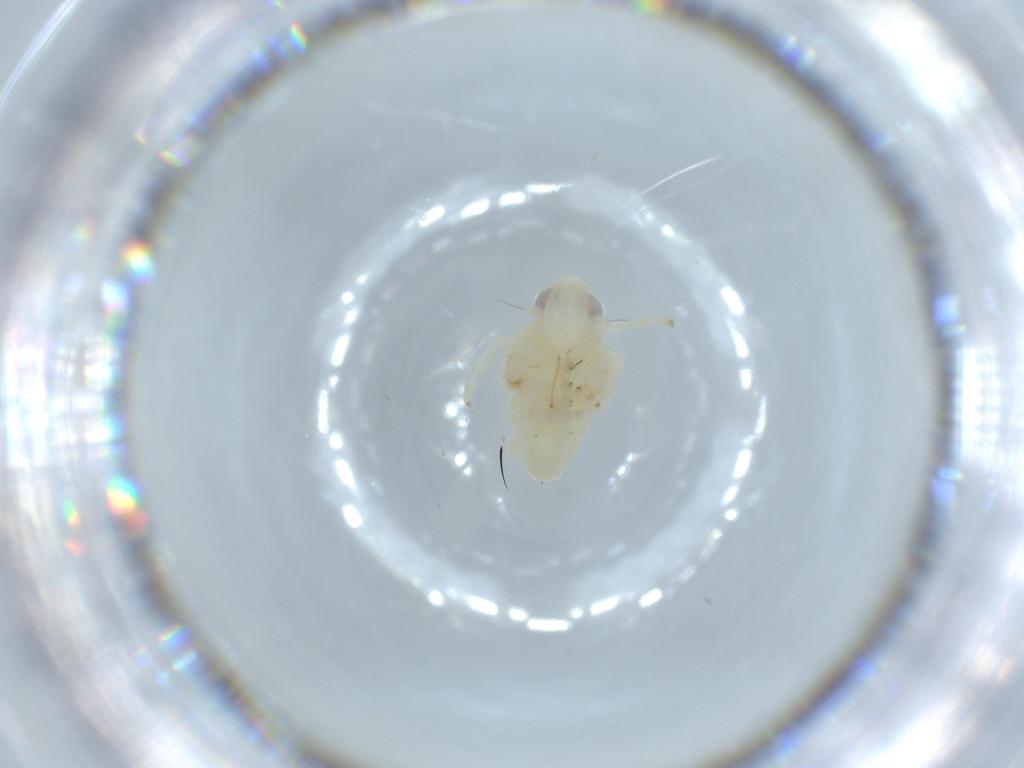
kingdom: Animalia
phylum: Arthropoda
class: Insecta
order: Hemiptera
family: Nogodinidae
